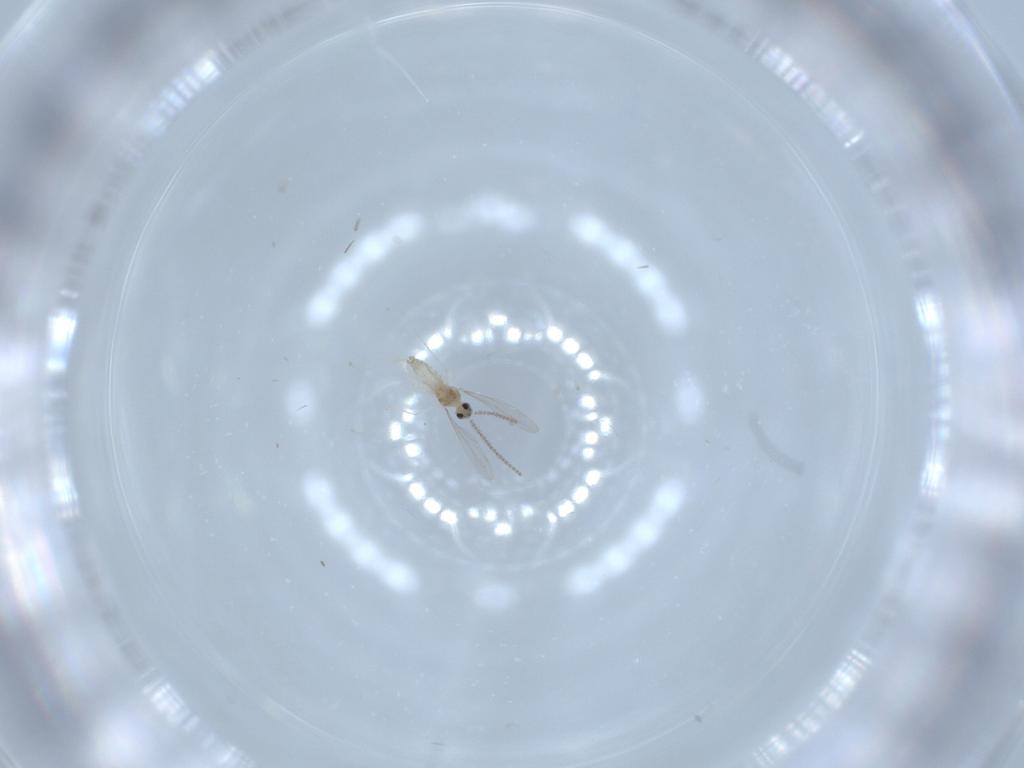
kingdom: Animalia
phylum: Arthropoda
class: Insecta
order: Diptera
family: Cecidomyiidae
